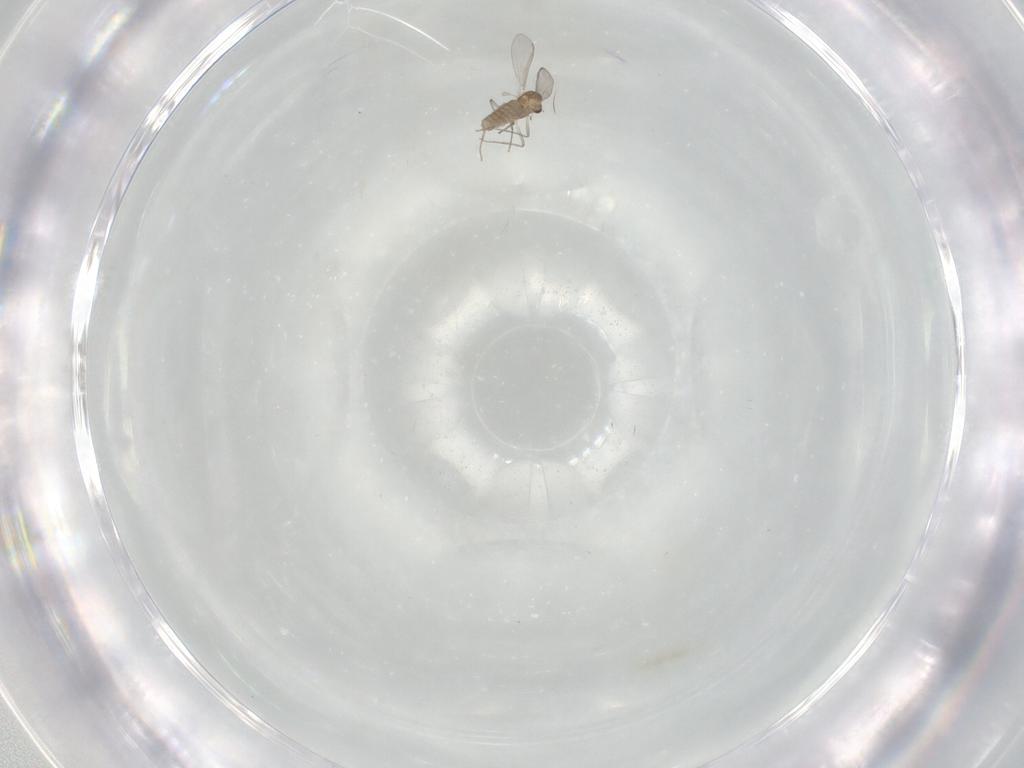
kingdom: Animalia
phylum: Arthropoda
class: Insecta
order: Diptera
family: Chironomidae
